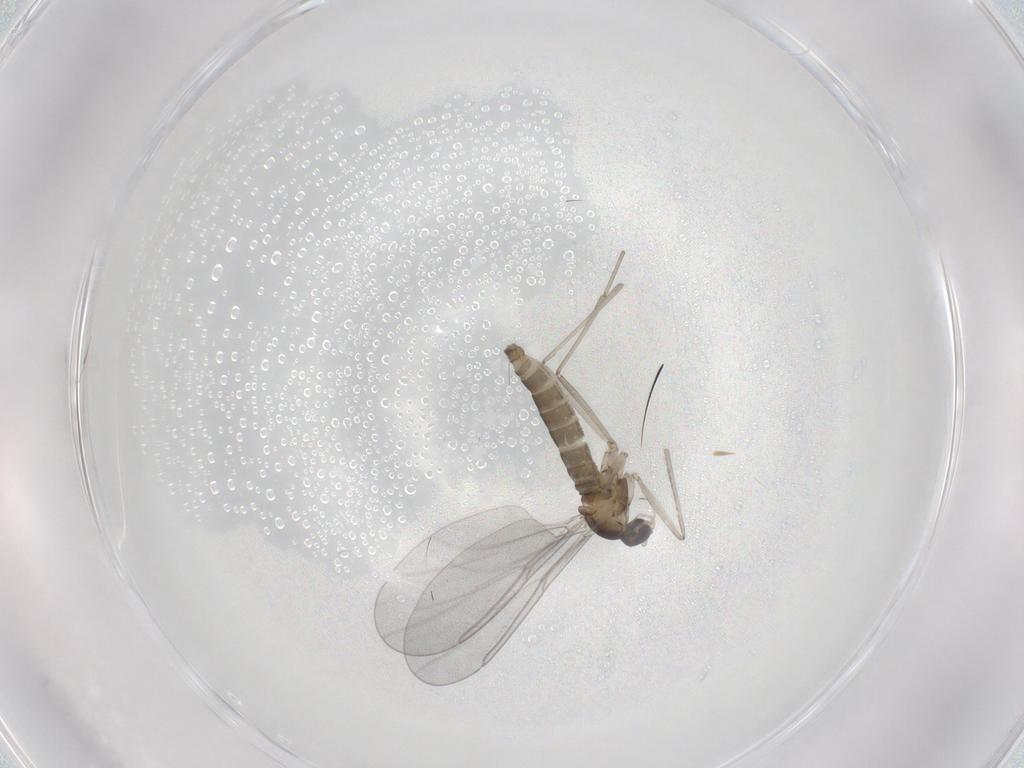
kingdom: Animalia
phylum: Arthropoda
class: Insecta
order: Diptera
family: Cecidomyiidae
